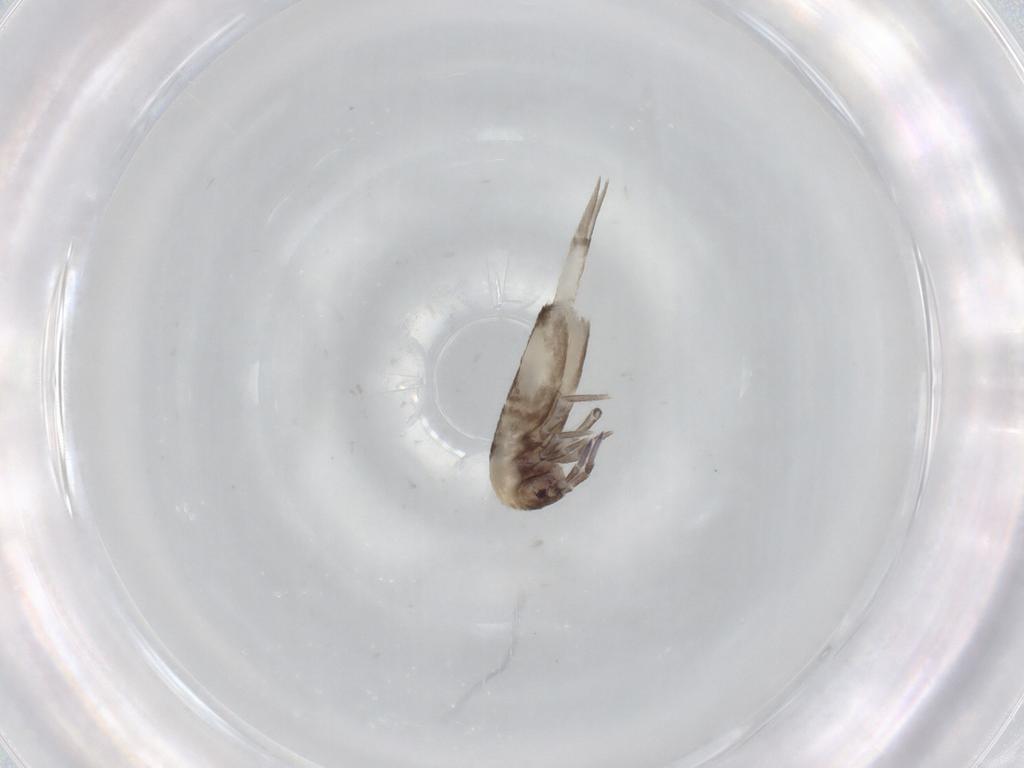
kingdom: Animalia
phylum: Arthropoda
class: Collembola
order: Entomobryomorpha
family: Entomobryidae
